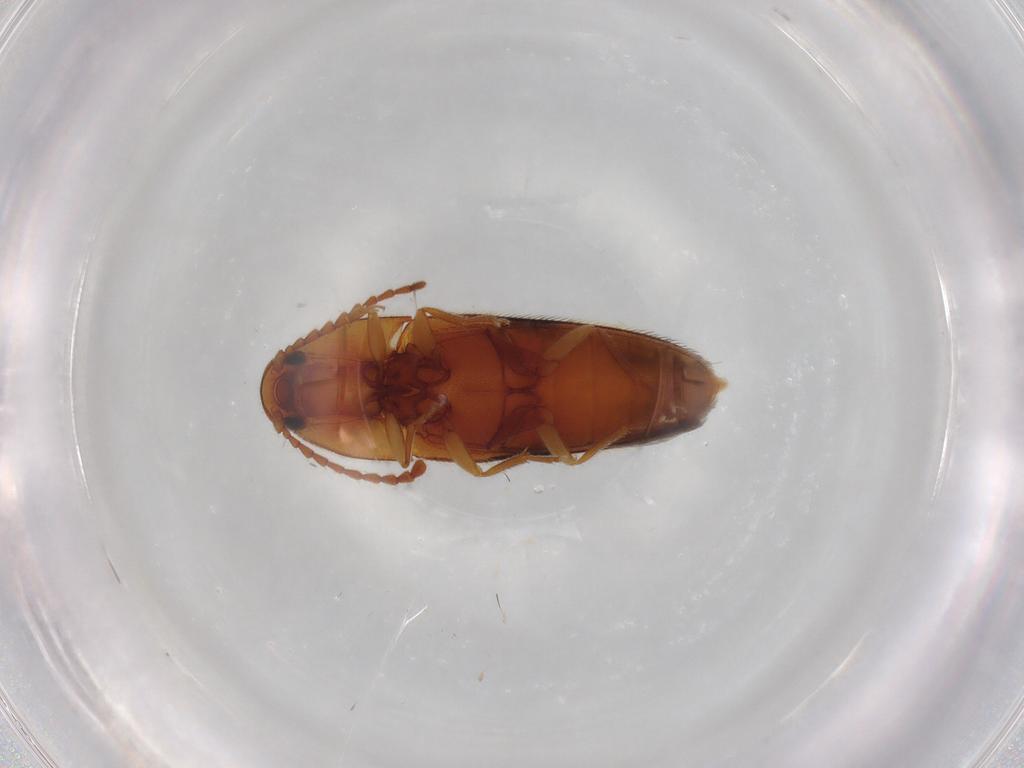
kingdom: Animalia
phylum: Arthropoda
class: Insecta
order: Coleoptera
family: Elateridae
